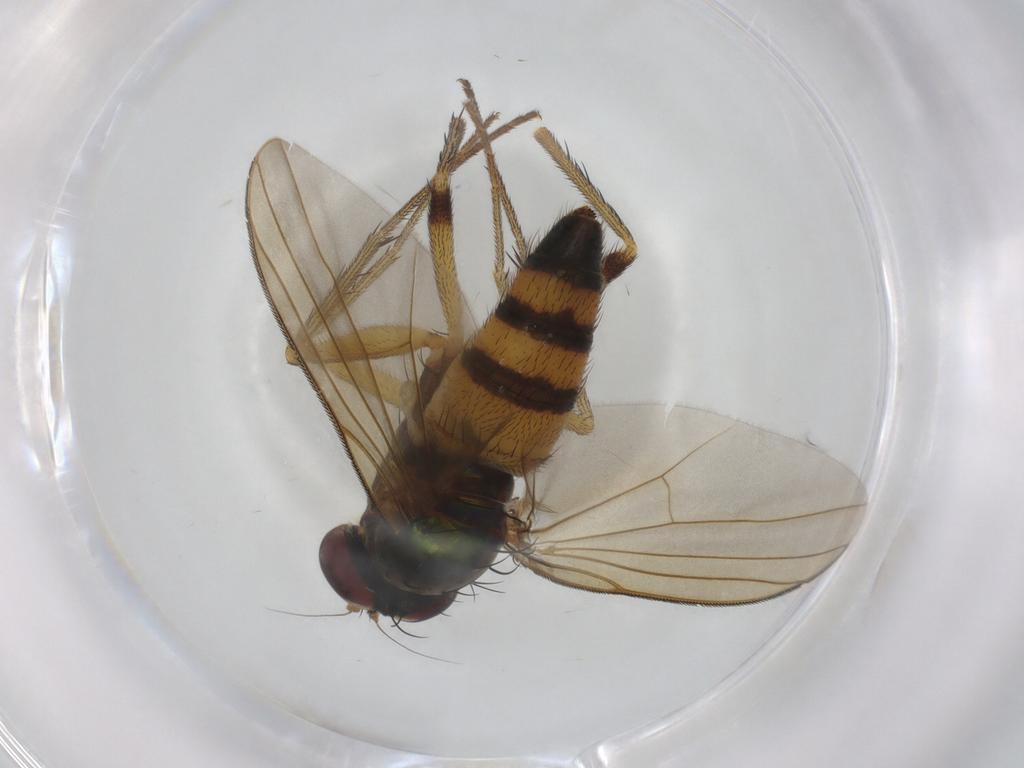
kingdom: Animalia
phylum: Arthropoda
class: Insecta
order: Diptera
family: Dolichopodidae
